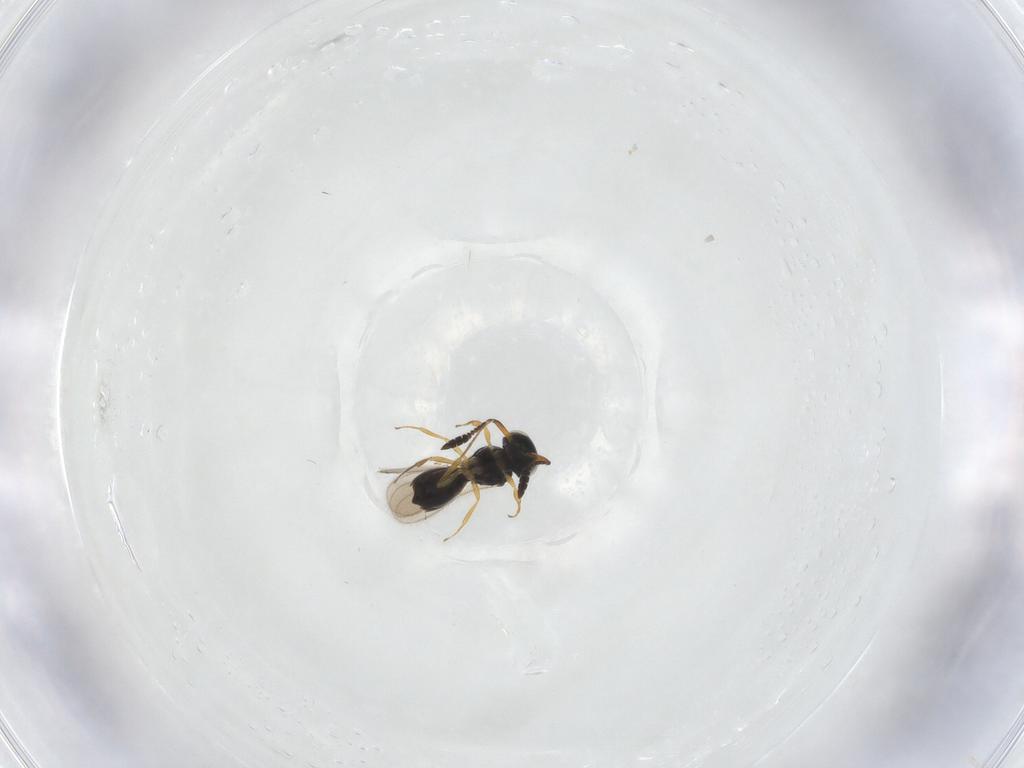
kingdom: Animalia
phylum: Arthropoda
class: Insecta
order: Hymenoptera
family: Scelionidae
